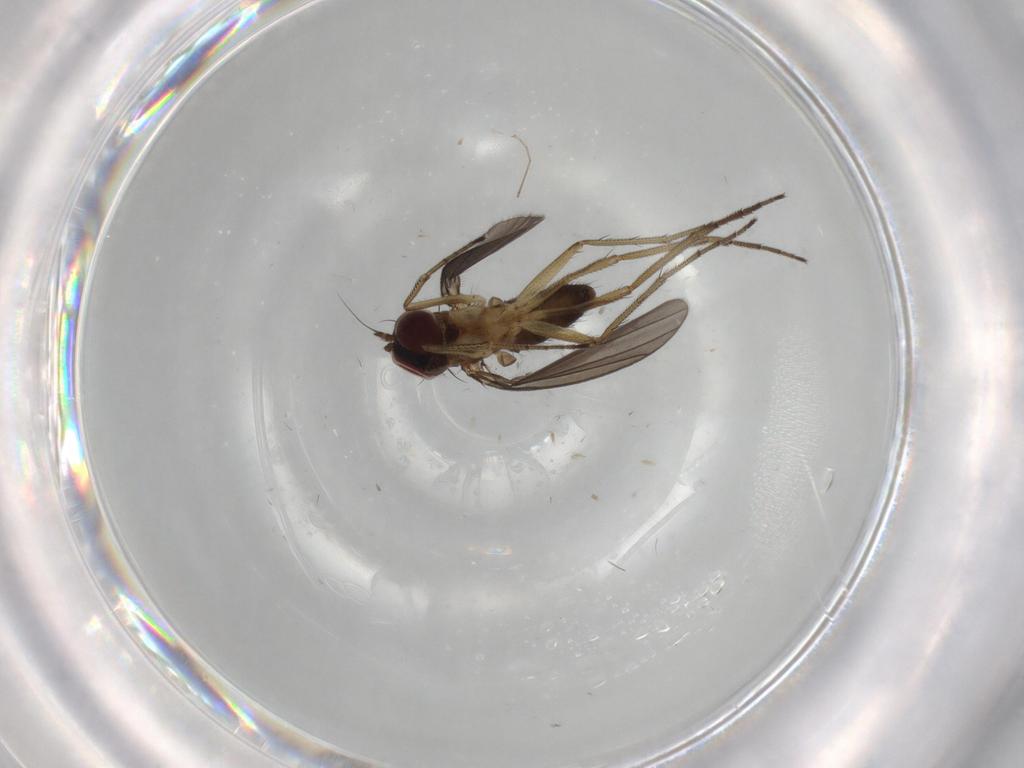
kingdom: Animalia
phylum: Arthropoda
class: Insecta
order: Diptera
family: Dolichopodidae
